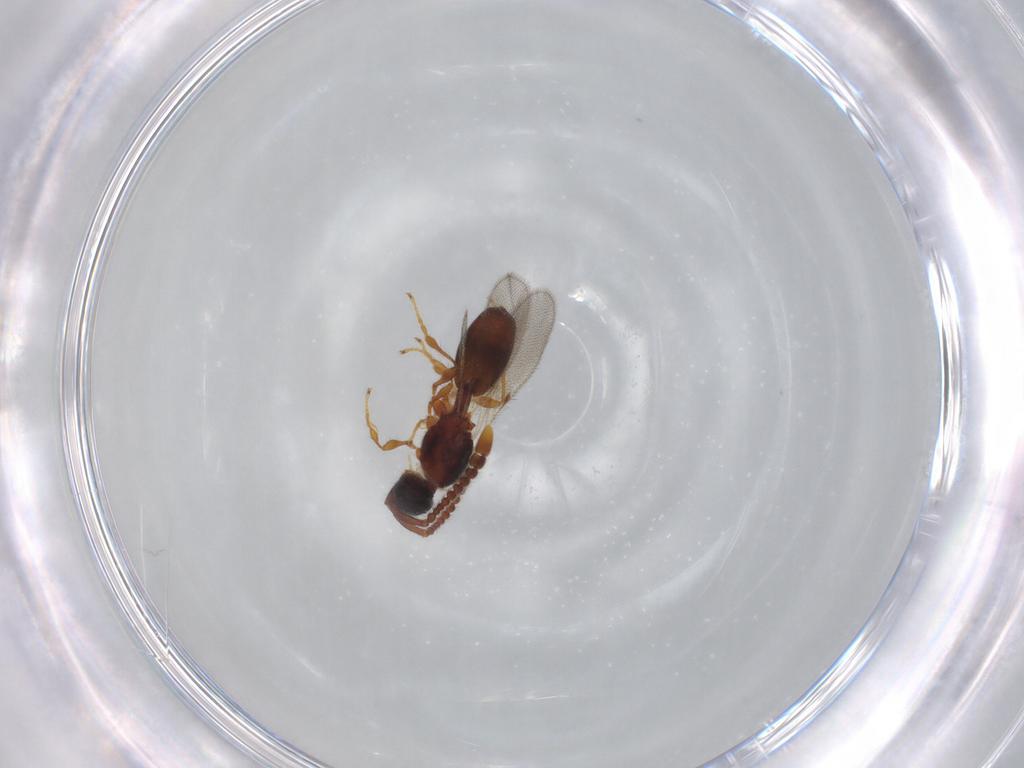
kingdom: Animalia
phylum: Arthropoda
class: Insecta
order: Hymenoptera
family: Diapriidae
